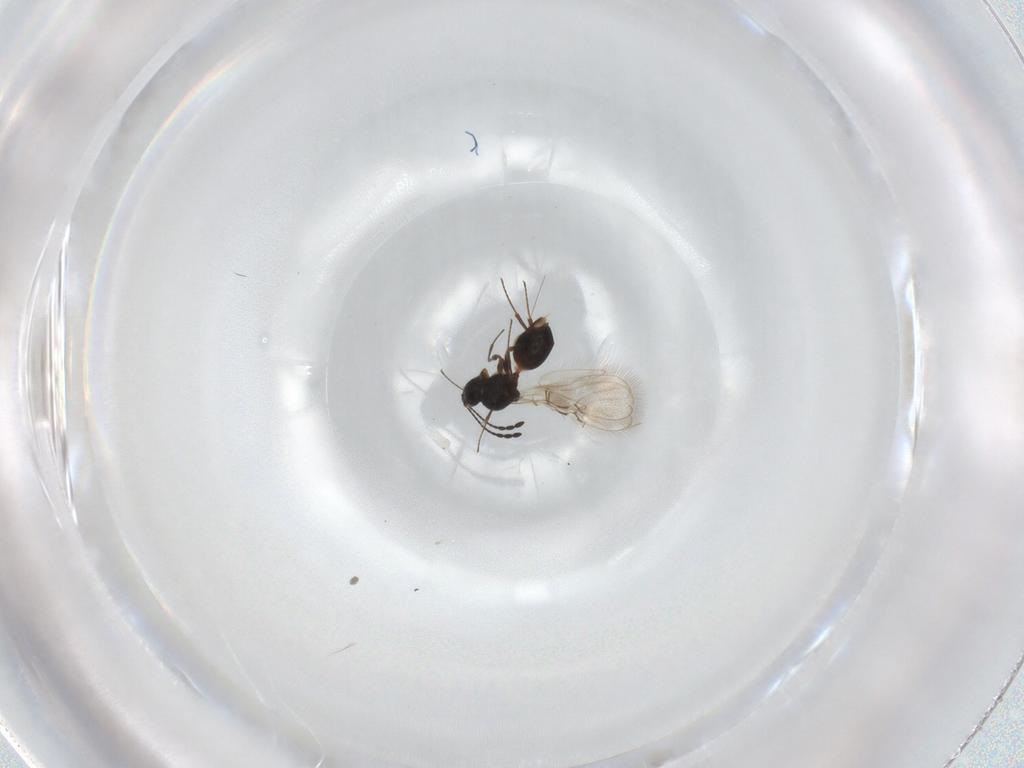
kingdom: Animalia
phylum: Arthropoda
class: Insecta
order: Hymenoptera
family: Figitidae
